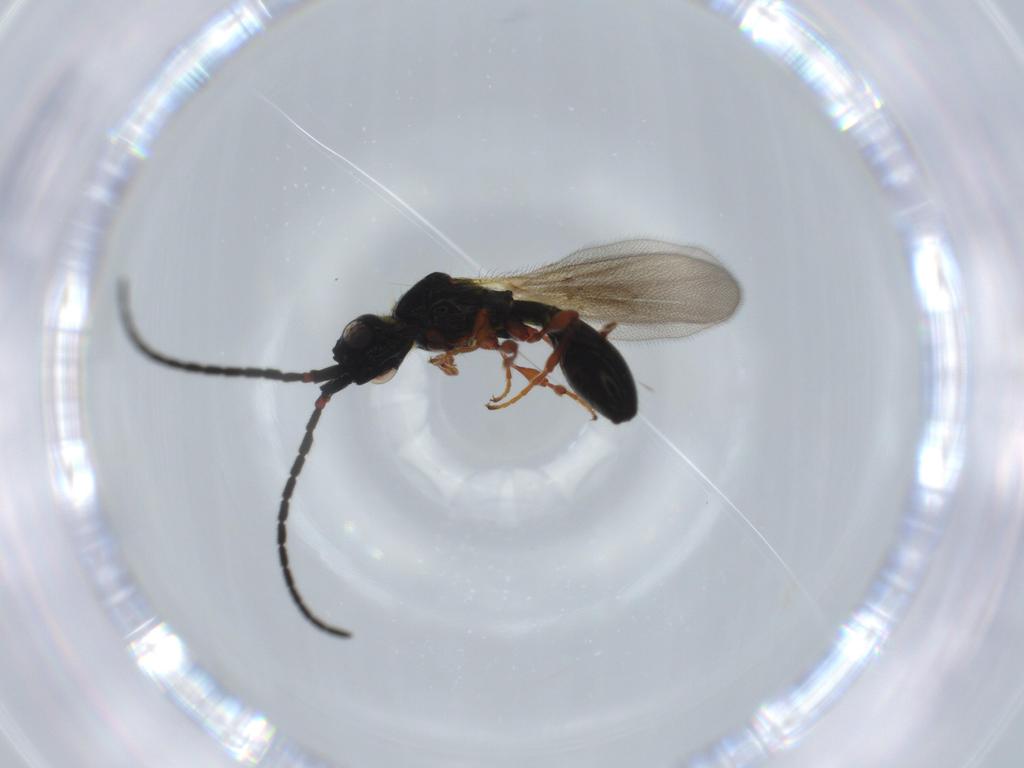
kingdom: Animalia
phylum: Arthropoda
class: Insecta
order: Hymenoptera
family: Diapriidae
